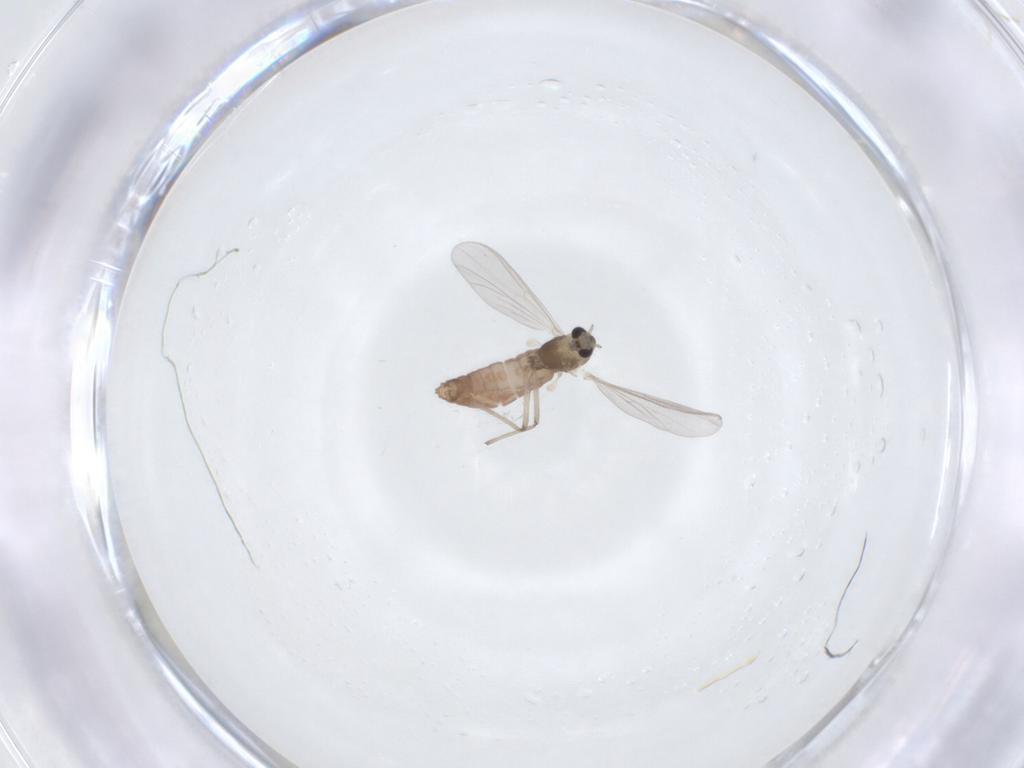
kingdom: Animalia
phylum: Arthropoda
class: Insecta
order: Diptera
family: Chironomidae
